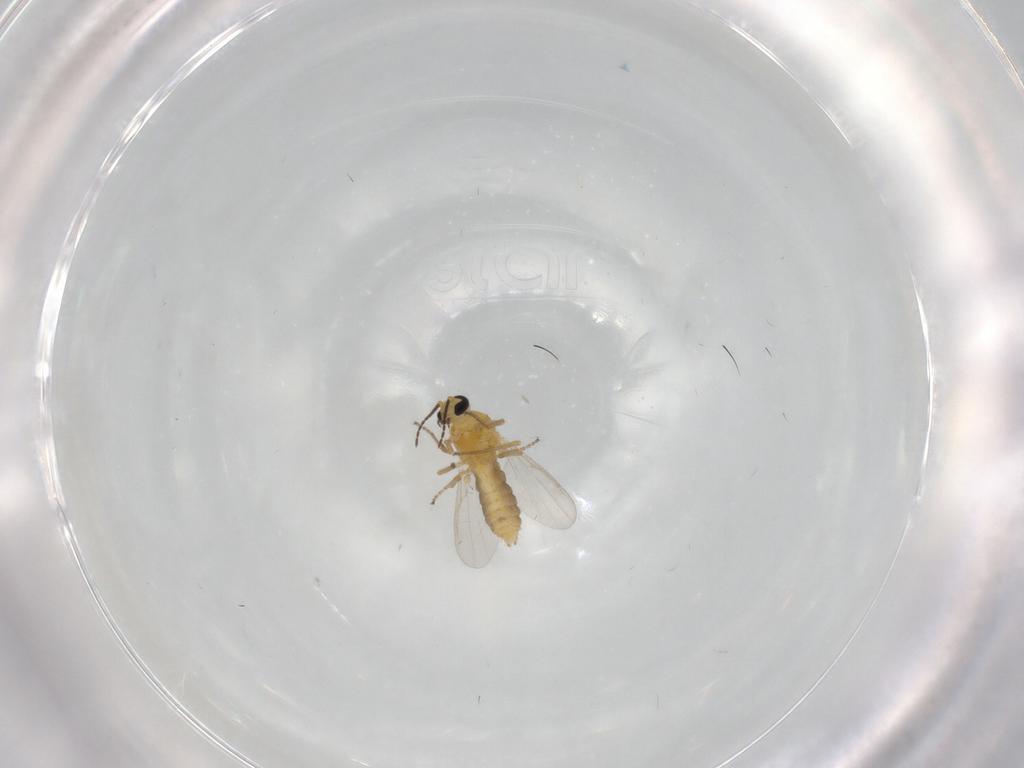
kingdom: Animalia
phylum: Arthropoda
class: Insecta
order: Diptera
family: Drosophilidae
